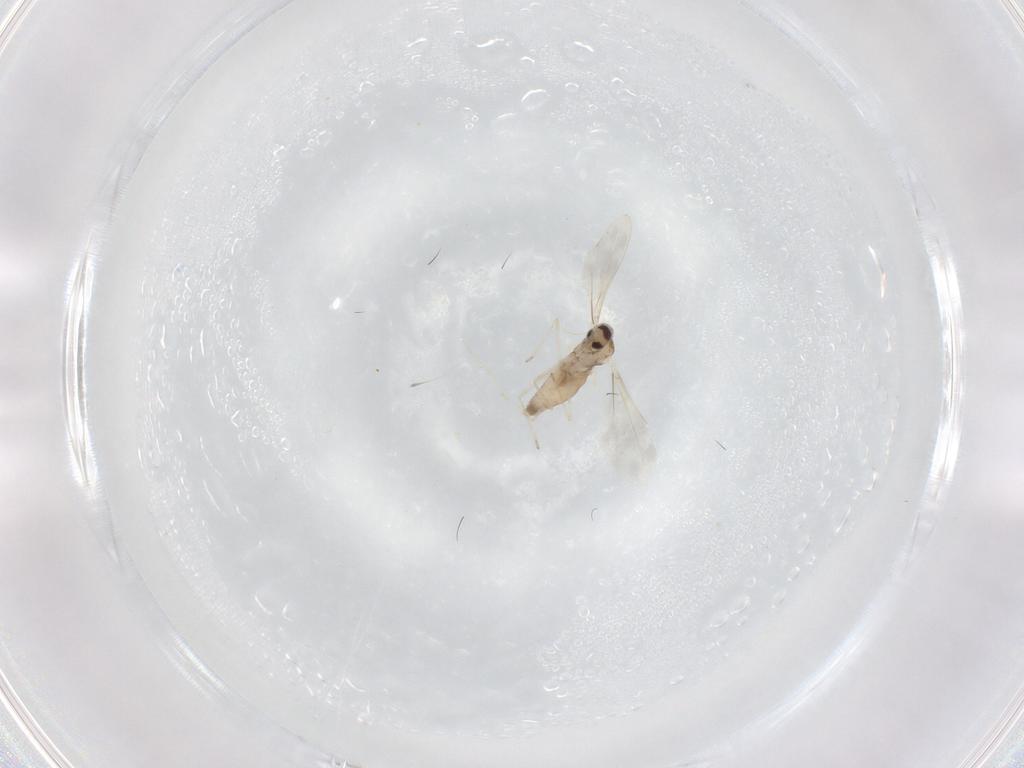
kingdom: Animalia
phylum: Arthropoda
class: Insecta
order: Diptera
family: Cecidomyiidae
